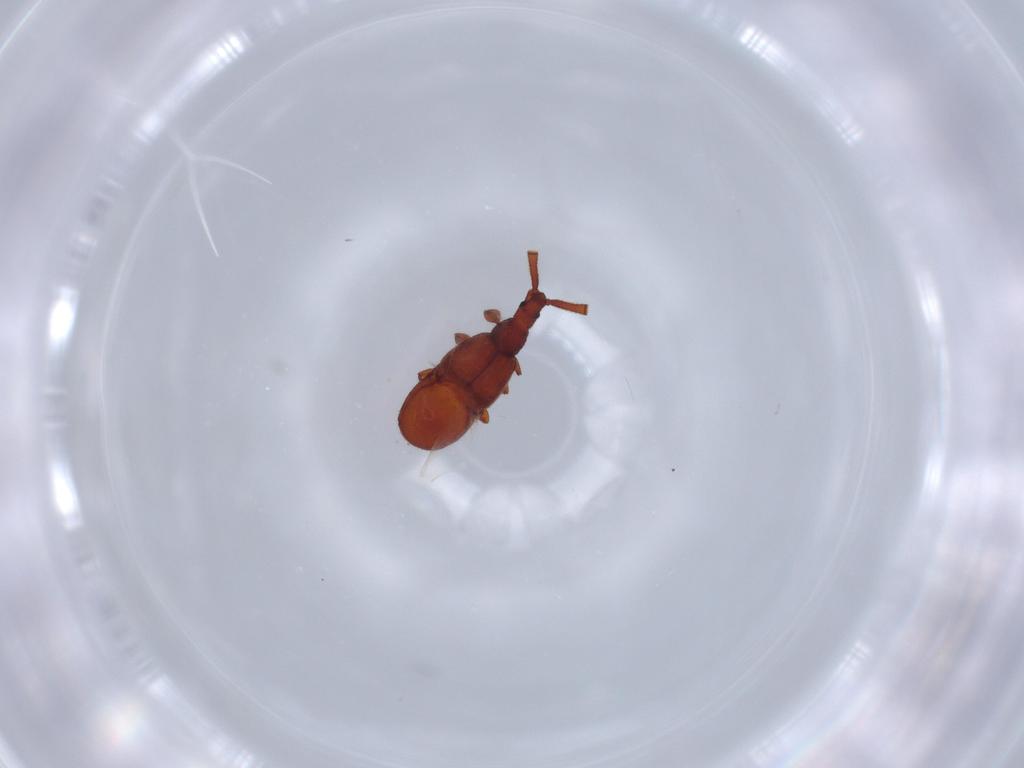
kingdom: Animalia
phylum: Arthropoda
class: Insecta
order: Coleoptera
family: Staphylinidae
